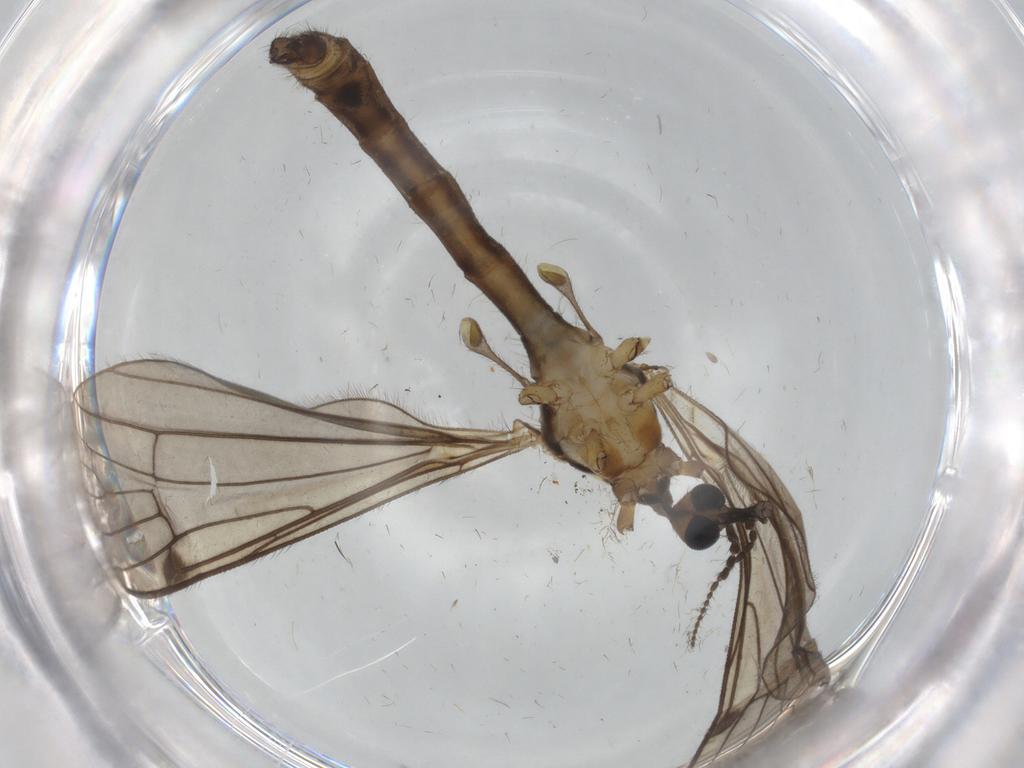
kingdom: Animalia
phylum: Arthropoda
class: Insecta
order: Diptera
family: Limoniidae
